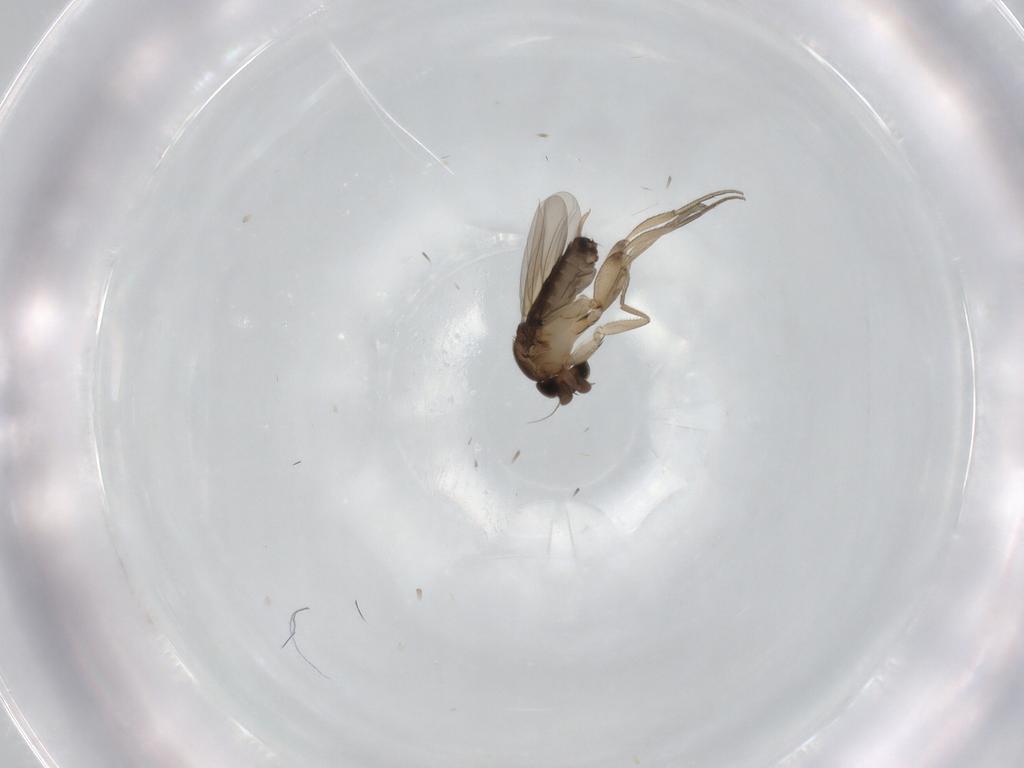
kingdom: Animalia
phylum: Arthropoda
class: Insecta
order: Diptera
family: Phoridae
